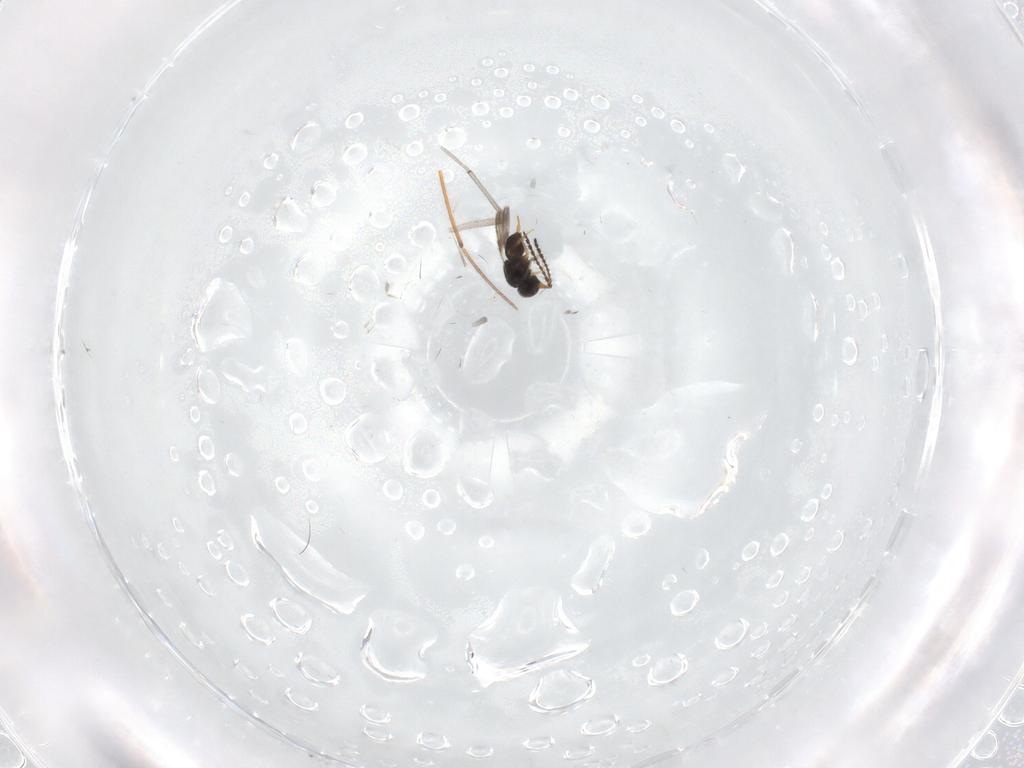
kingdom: Animalia
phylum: Arthropoda
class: Insecta
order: Hymenoptera
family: Scelionidae
